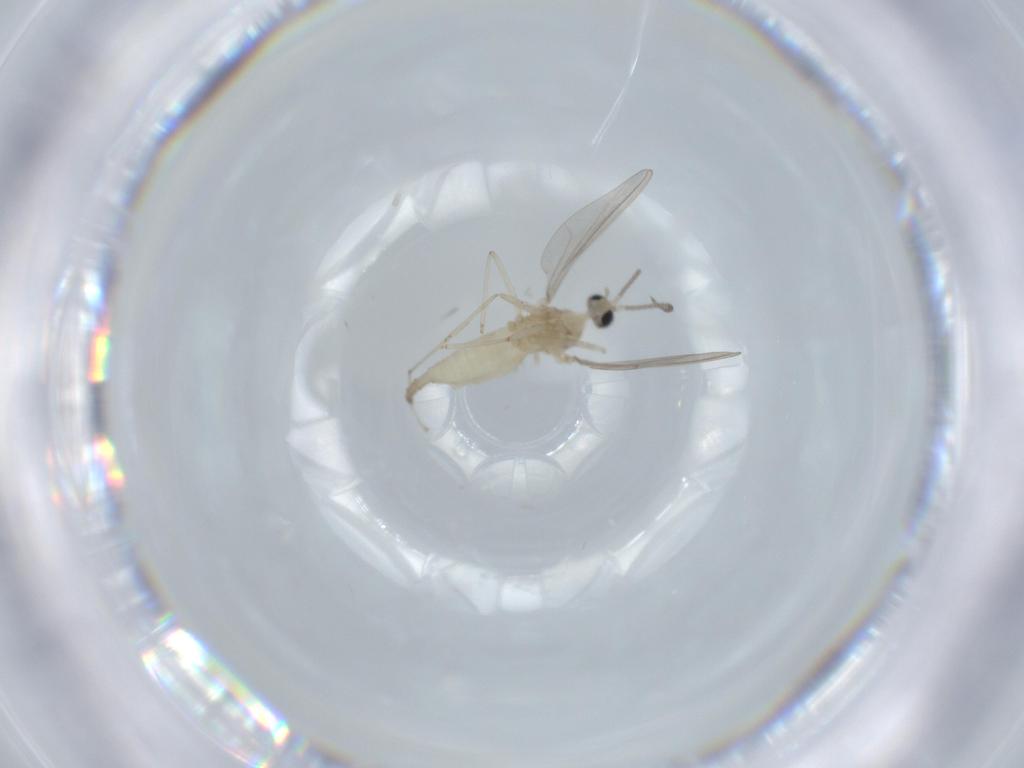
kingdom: Animalia
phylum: Arthropoda
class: Insecta
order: Diptera
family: Cecidomyiidae
